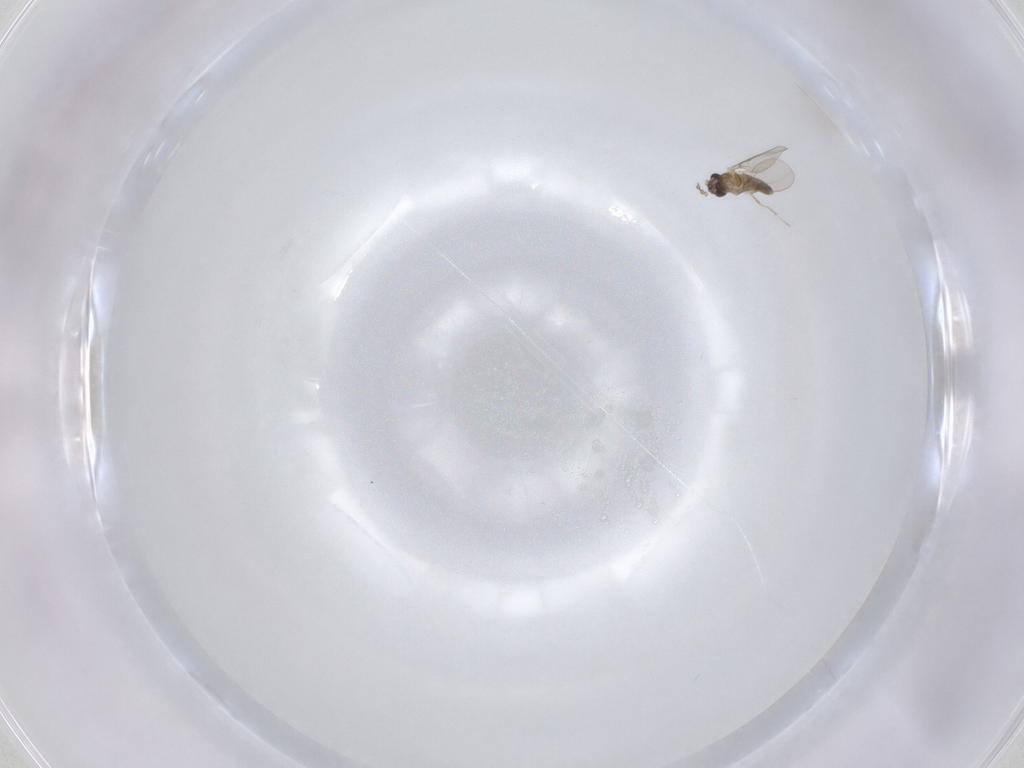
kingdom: Animalia
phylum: Arthropoda
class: Insecta
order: Diptera
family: Cecidomyiidae
